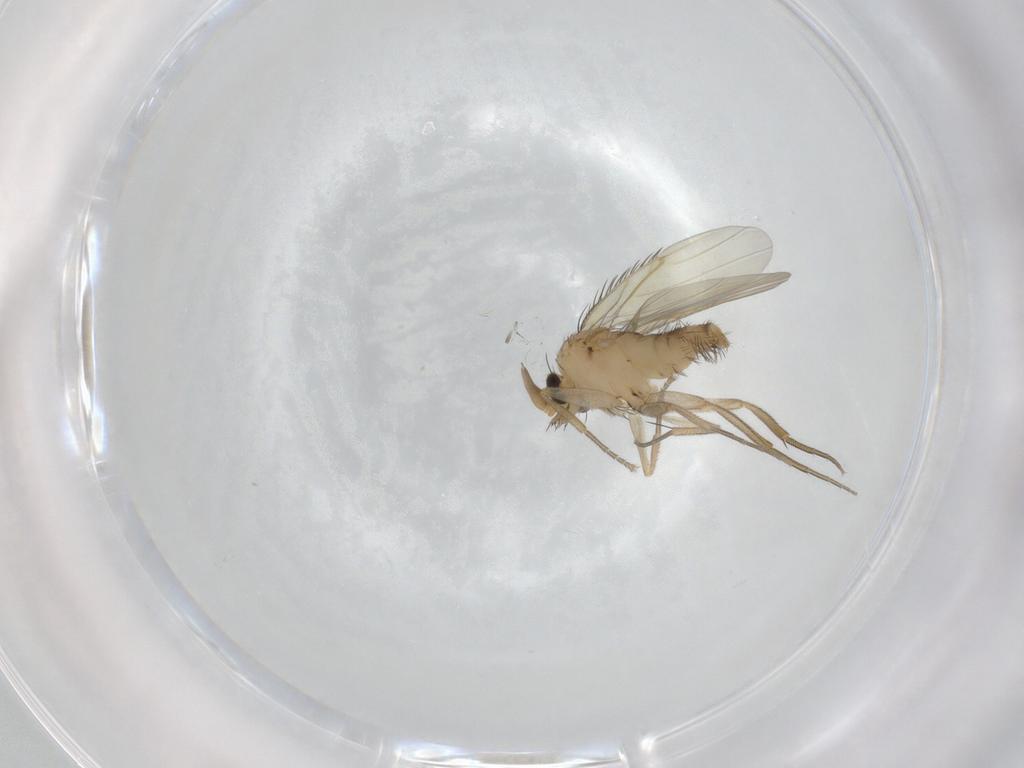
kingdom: Animalia
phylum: Arthropoda
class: Insecta
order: Diptera
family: Phoridae
